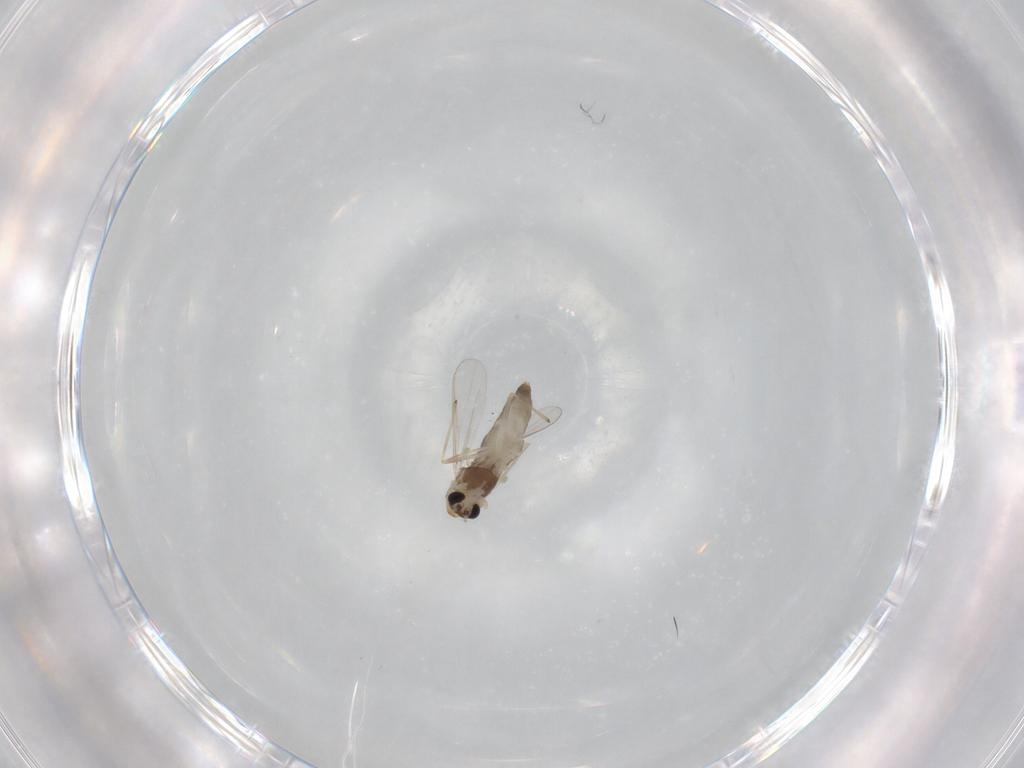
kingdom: Animalia
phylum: Arthropoda
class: Insecta
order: Diptera
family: Chironomidae
